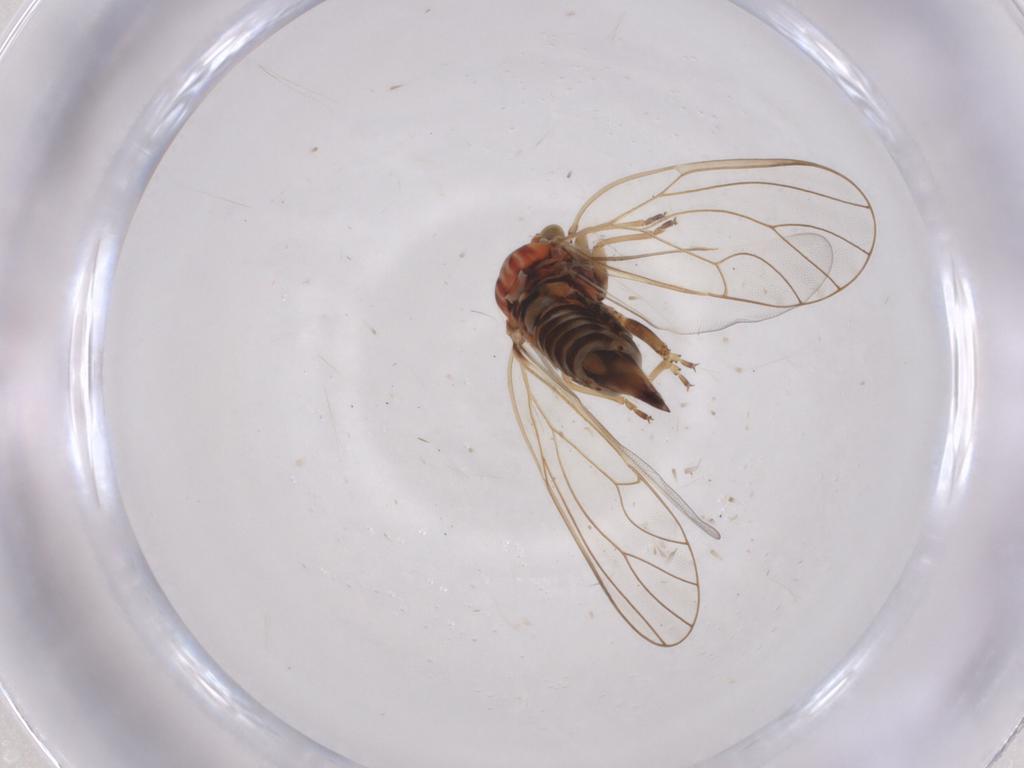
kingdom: Animalia
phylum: Arthropoda
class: Insecta
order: Hemiptera
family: Psyllidae
